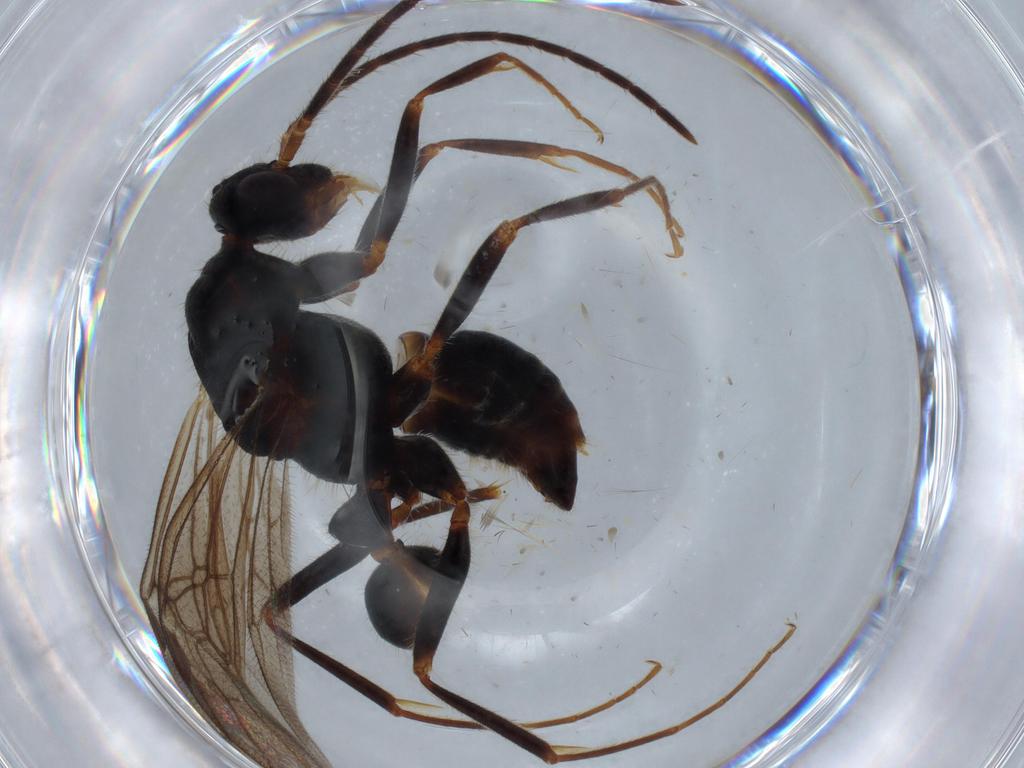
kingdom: Animalia
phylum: Arthropoda
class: Insecta
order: Hymenoptera
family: Formicidae
